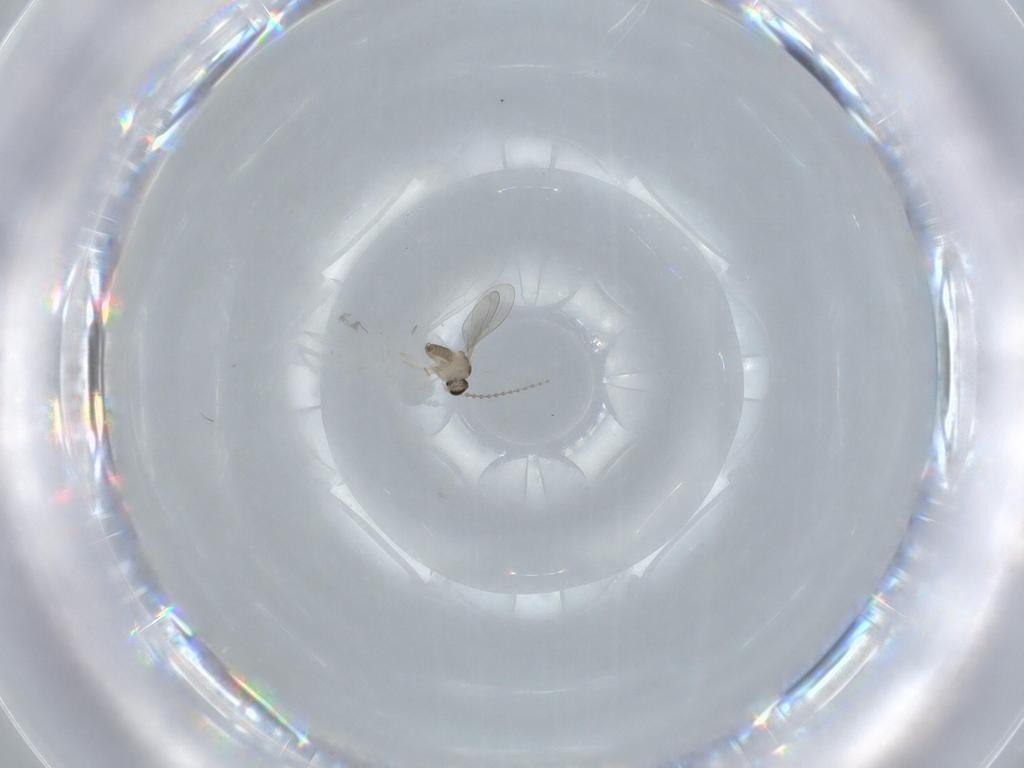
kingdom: Animalia
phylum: Arthropoda
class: Insecta
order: Diptera
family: Cecidomyiidae
